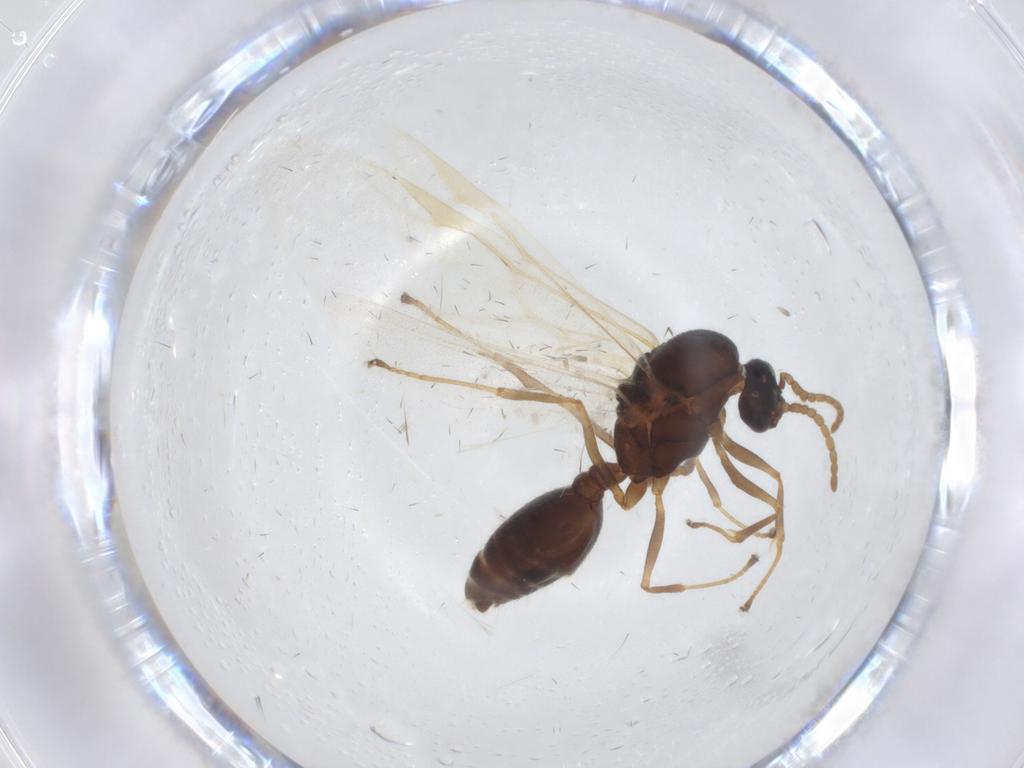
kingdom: Animalia
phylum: Arthropoda
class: Insecta
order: Hymenoptera
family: Formicidae
